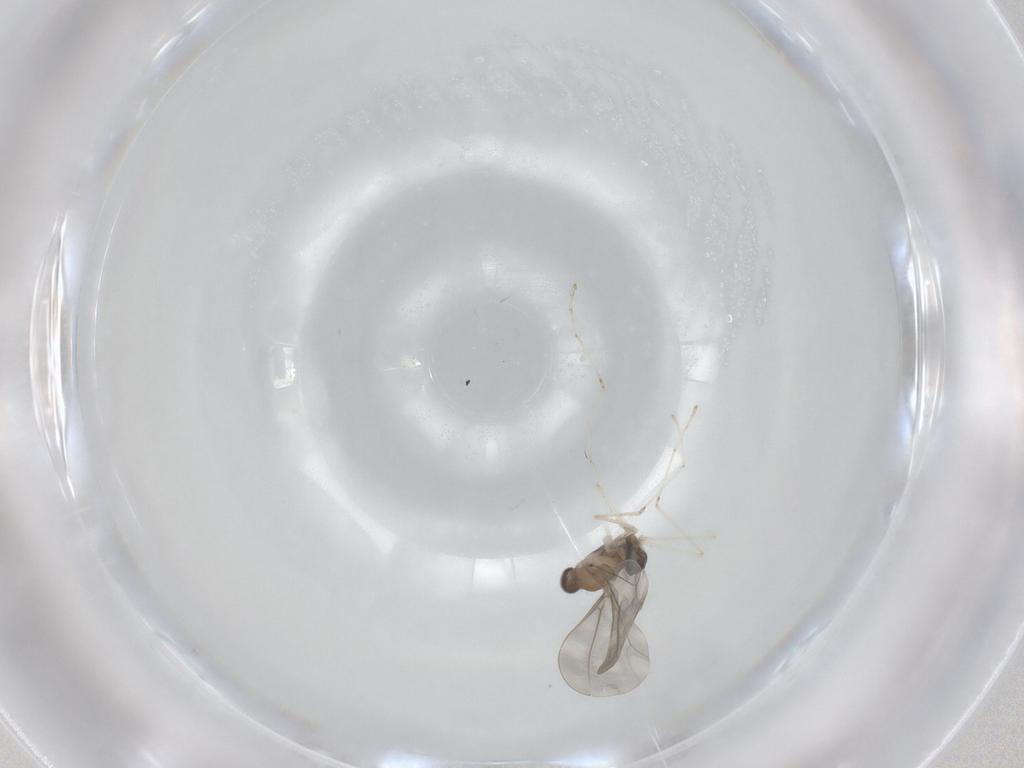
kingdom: Animalia
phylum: Arthropoda
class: Insecta
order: Diptera
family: Cecidomyiidae
